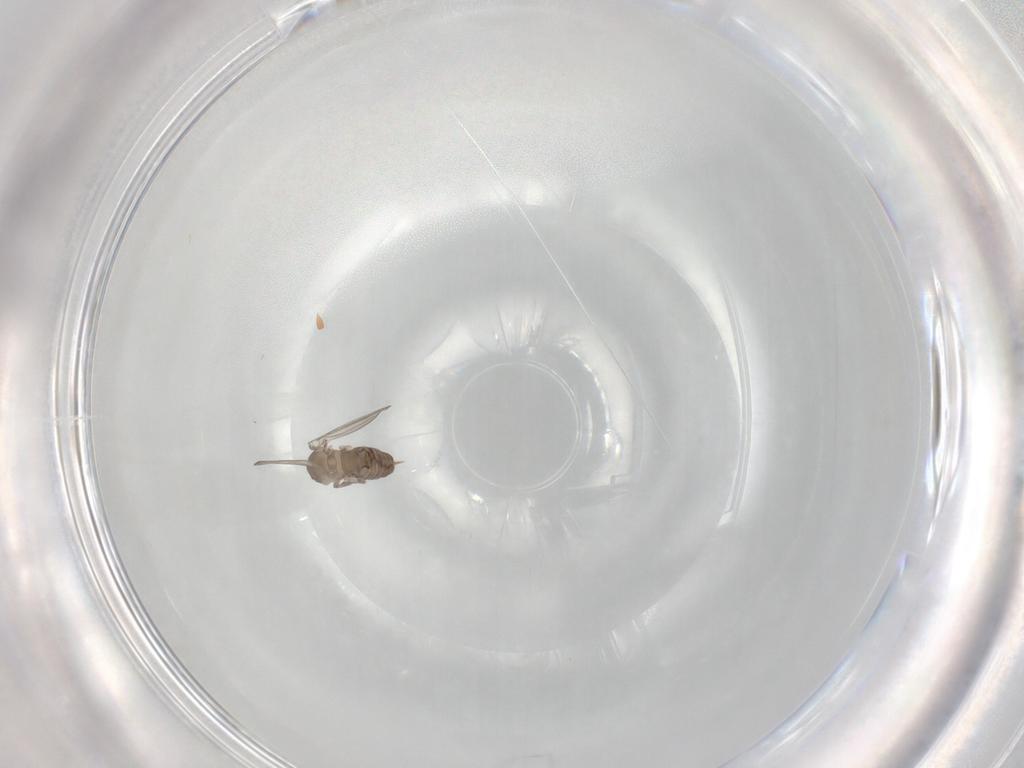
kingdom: Animalia
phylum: Arthropoda
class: Insecta
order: Diptera
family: Psychodidae
